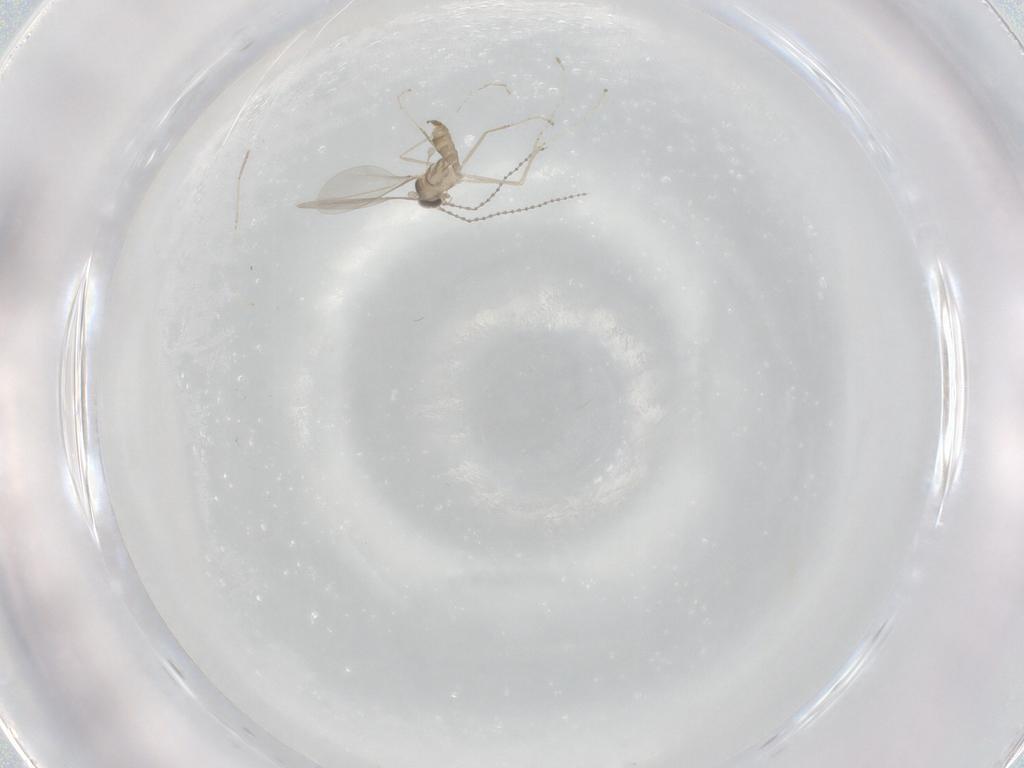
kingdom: Animalia
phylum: Arthropoda
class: Insecta
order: Diptera
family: Cecidomyiidae
